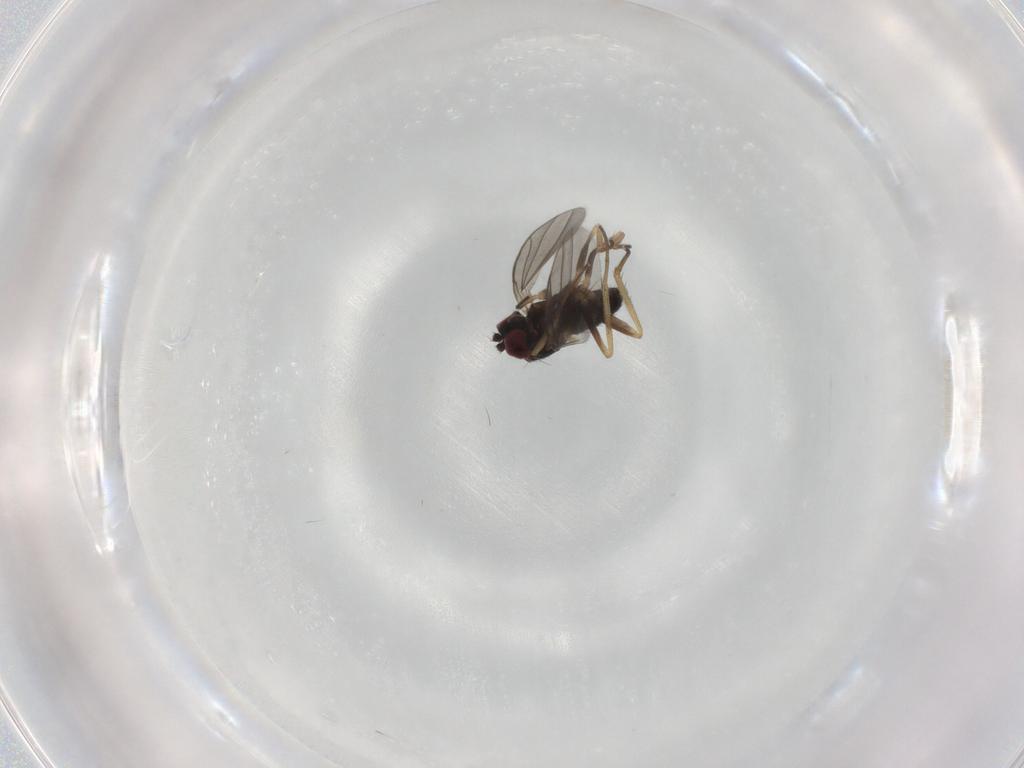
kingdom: Animalia
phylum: Arthropoda
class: Insecta
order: Diptera
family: Dolichopodidae
